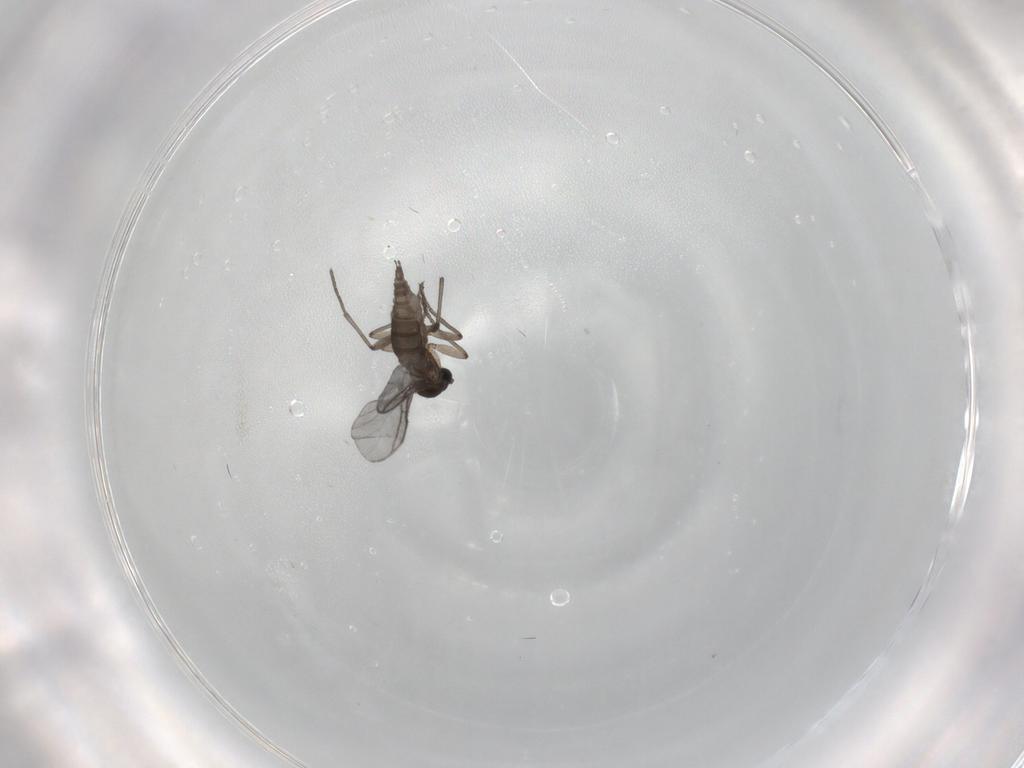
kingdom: Animalia
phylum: Arthropoda
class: Insecta
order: Diptera
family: Sciaridae
